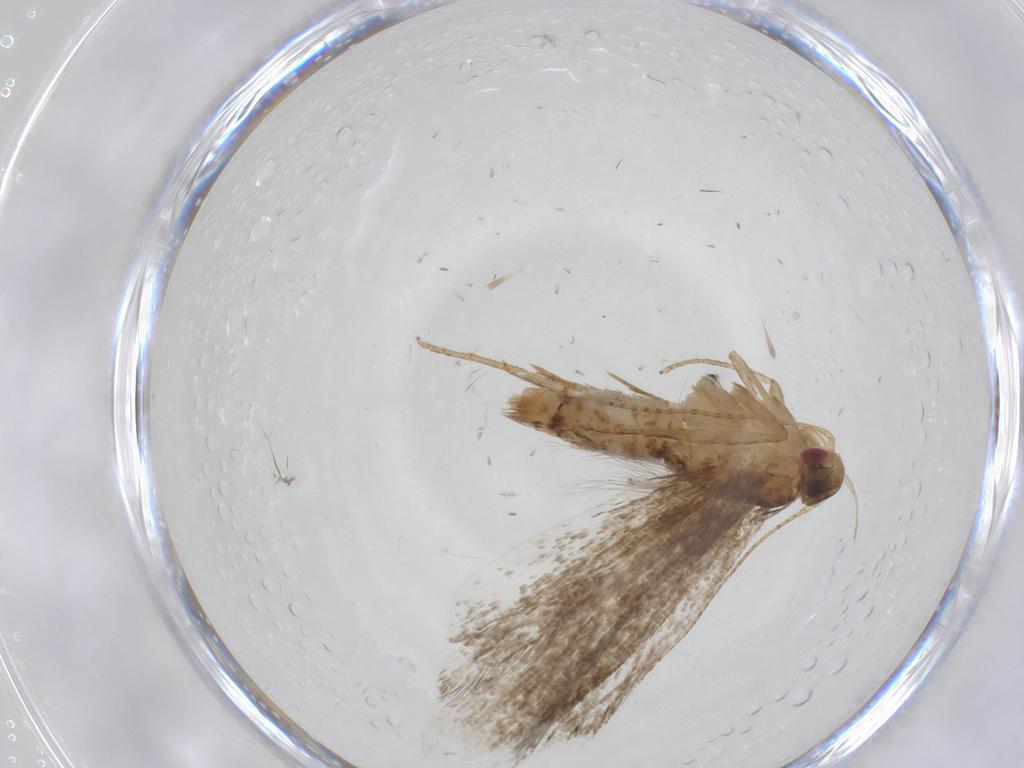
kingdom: Animalia
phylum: Arthropoda
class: Insecta
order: Lepidoptera
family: Gelechiidae
